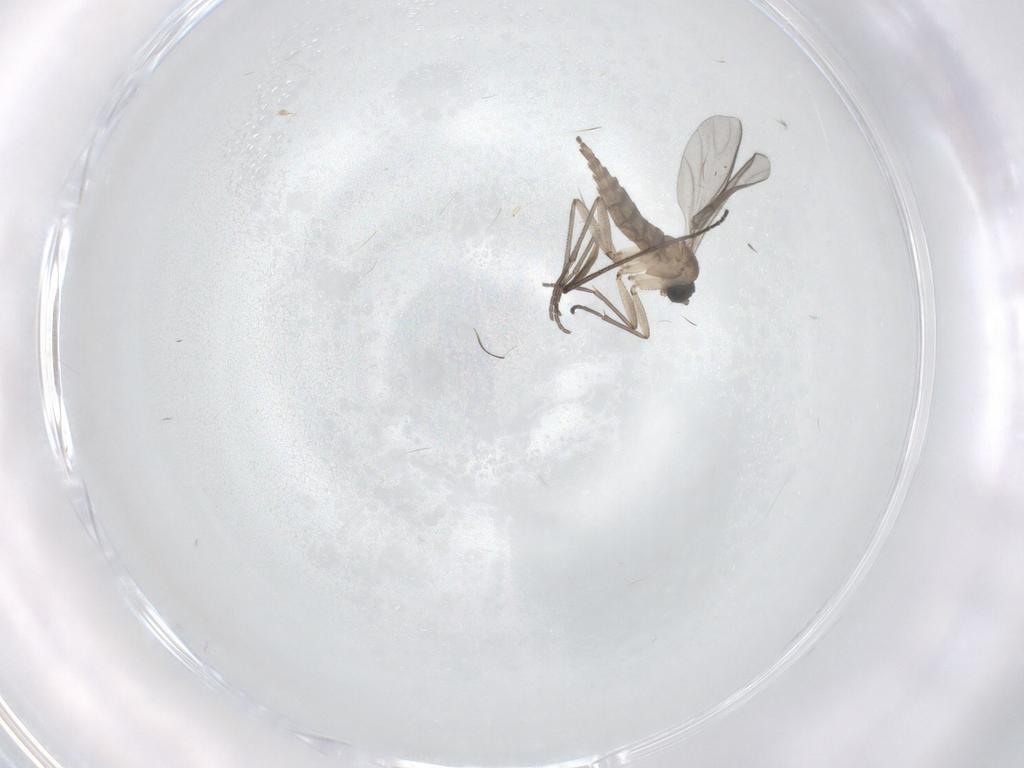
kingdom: Animalia
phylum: Arthropoda
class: Insecta
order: Diptera
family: Sciaridae
